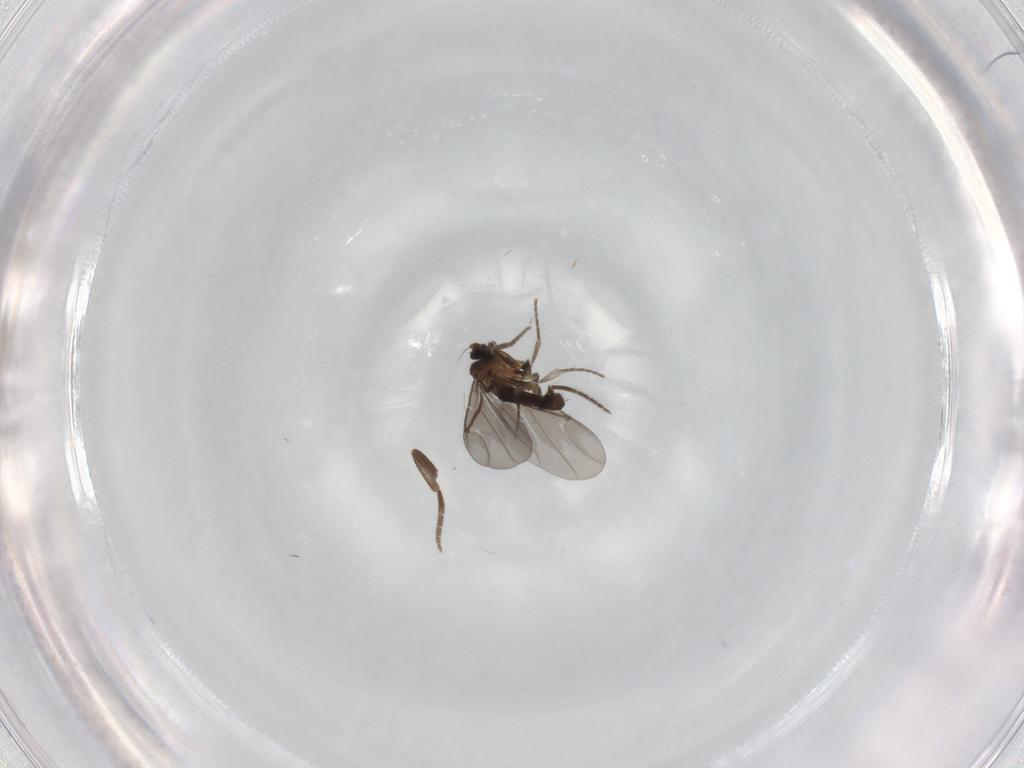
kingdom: Animalia
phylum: Arthropoda
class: Insecta
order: Diptera
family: Phoridae
